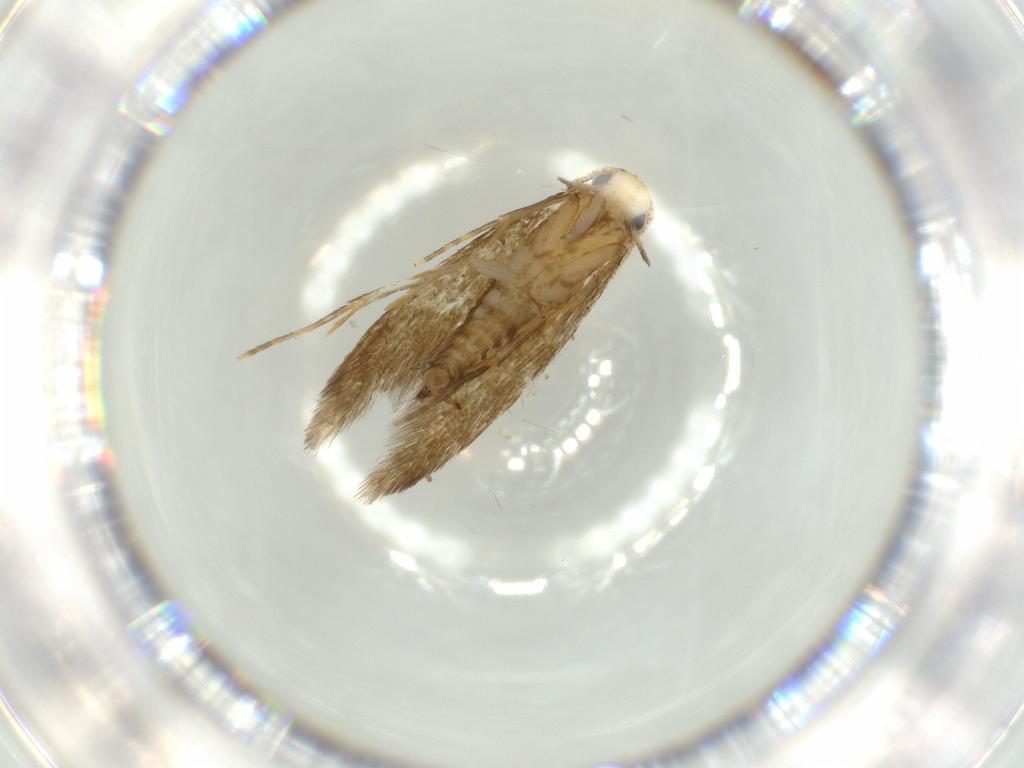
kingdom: Animalia
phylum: Arthropoda
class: Insecta
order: Lepidoptera
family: Tineidae
